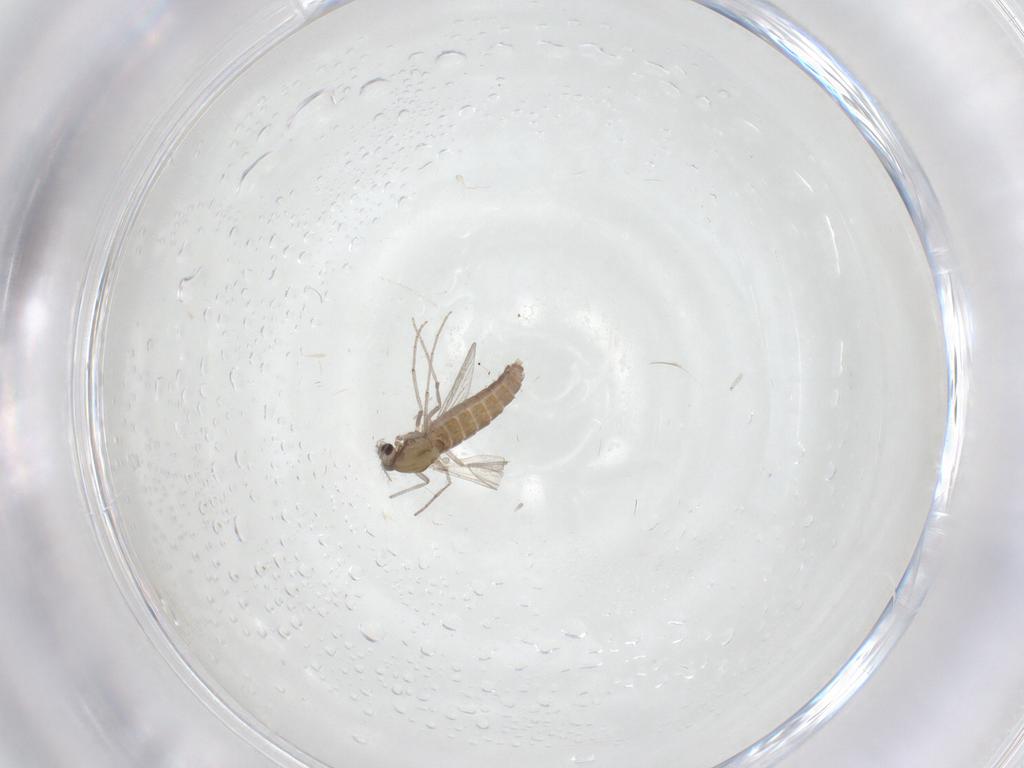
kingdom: Animalia
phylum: Arthropoda
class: Insecta
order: Diptera
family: Chironomidae
